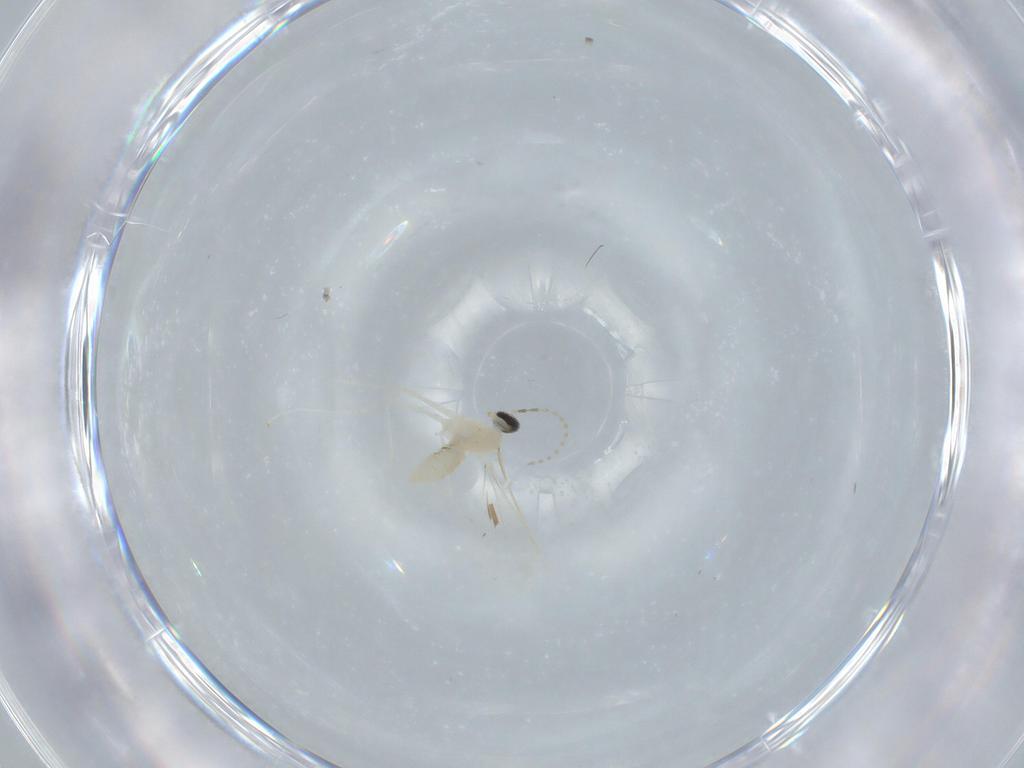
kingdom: Animalia
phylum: Arthropoda
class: Insecta
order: Diptera
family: Cecidomyiidae
